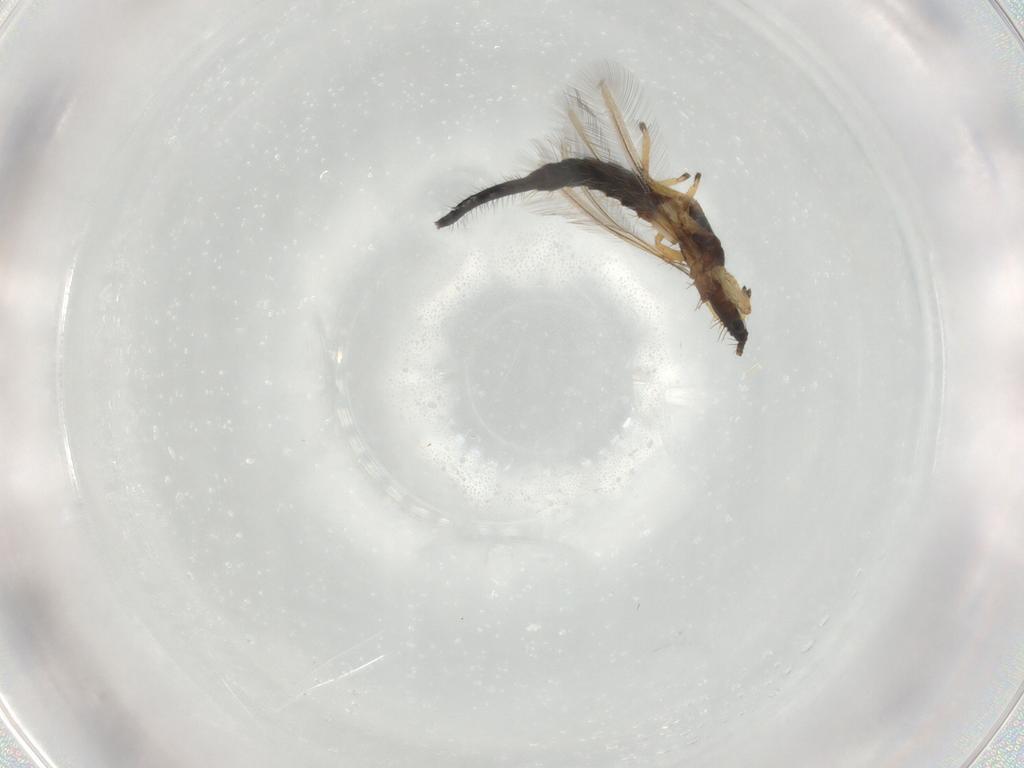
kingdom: Animalia
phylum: Arthropoda
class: Insecta
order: Thysanoptera
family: Phlaeothripidae
